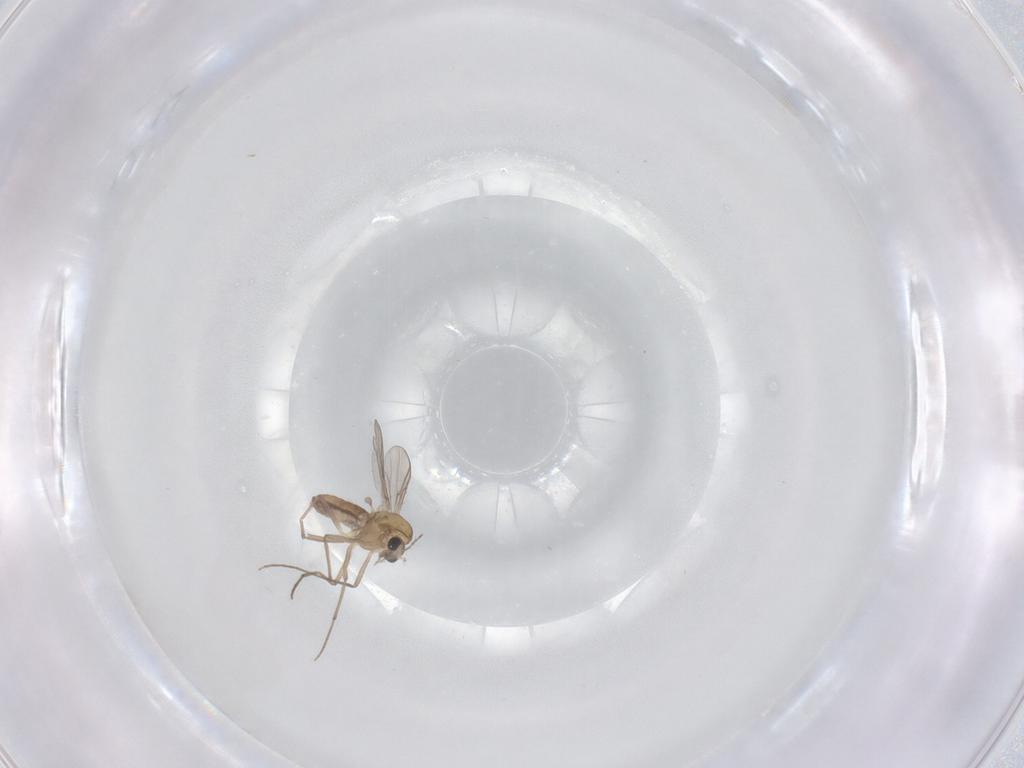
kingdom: Animalia
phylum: Arthropoda
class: Insecta
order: Diptera
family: Chironomidae
